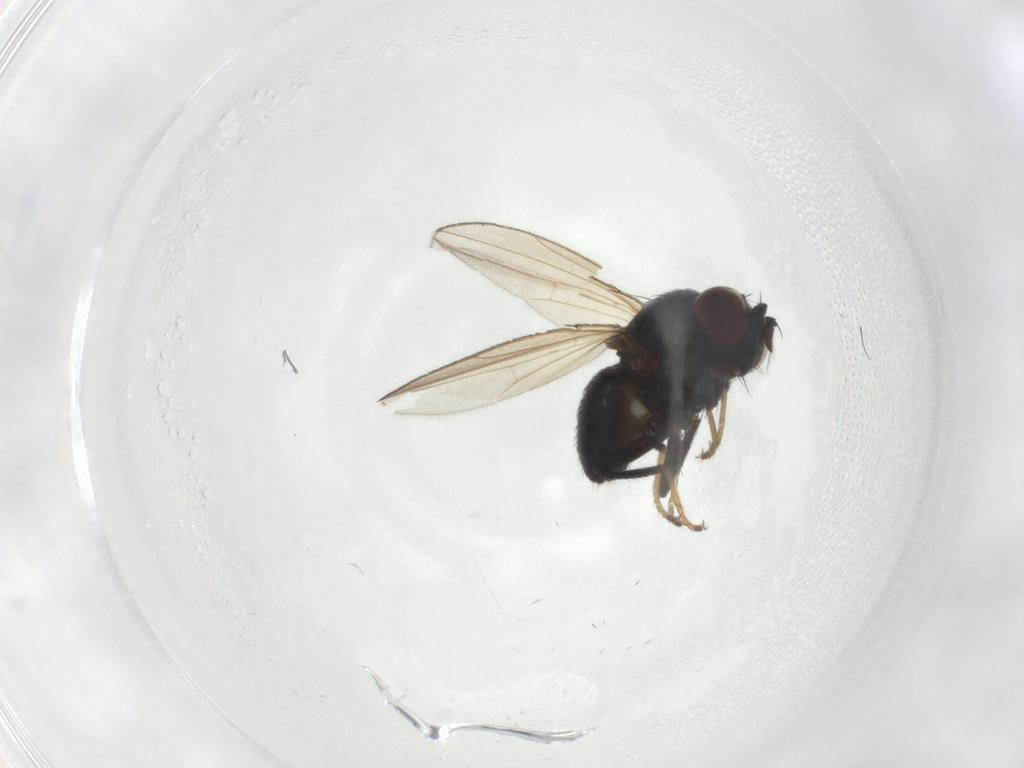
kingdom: Animalia
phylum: Arthropoda
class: Insecta
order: Diptera
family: Ephydridae
